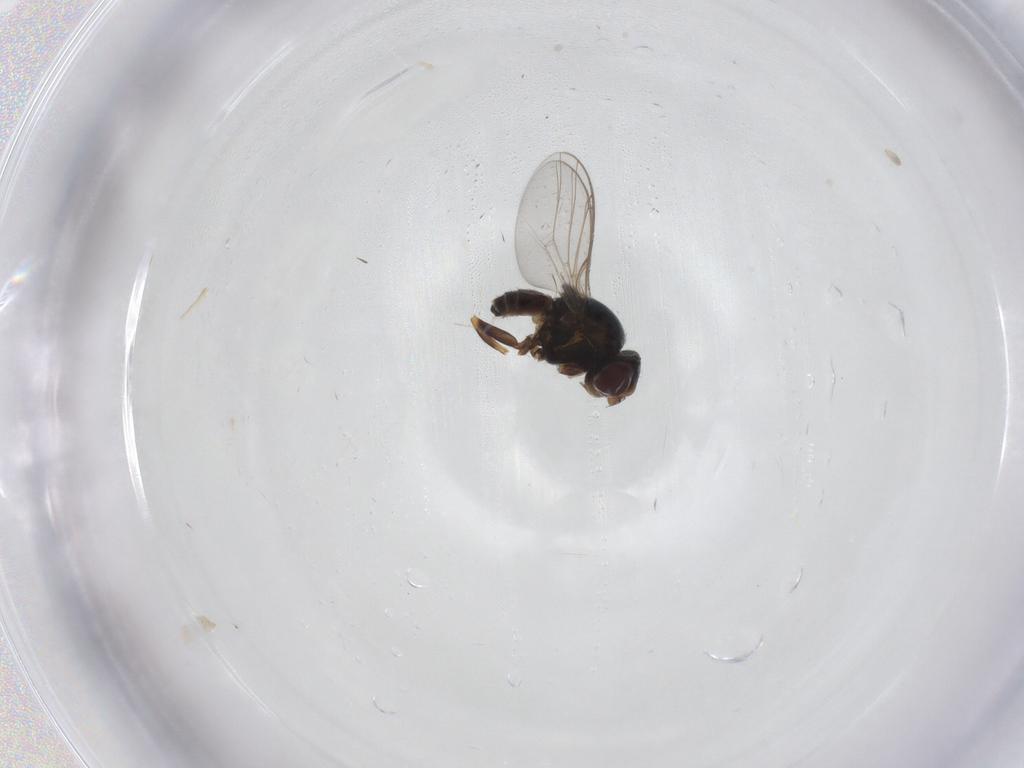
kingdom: Animalia
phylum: Arthropoda
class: Insecta
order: Diptera
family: Chloropidae
